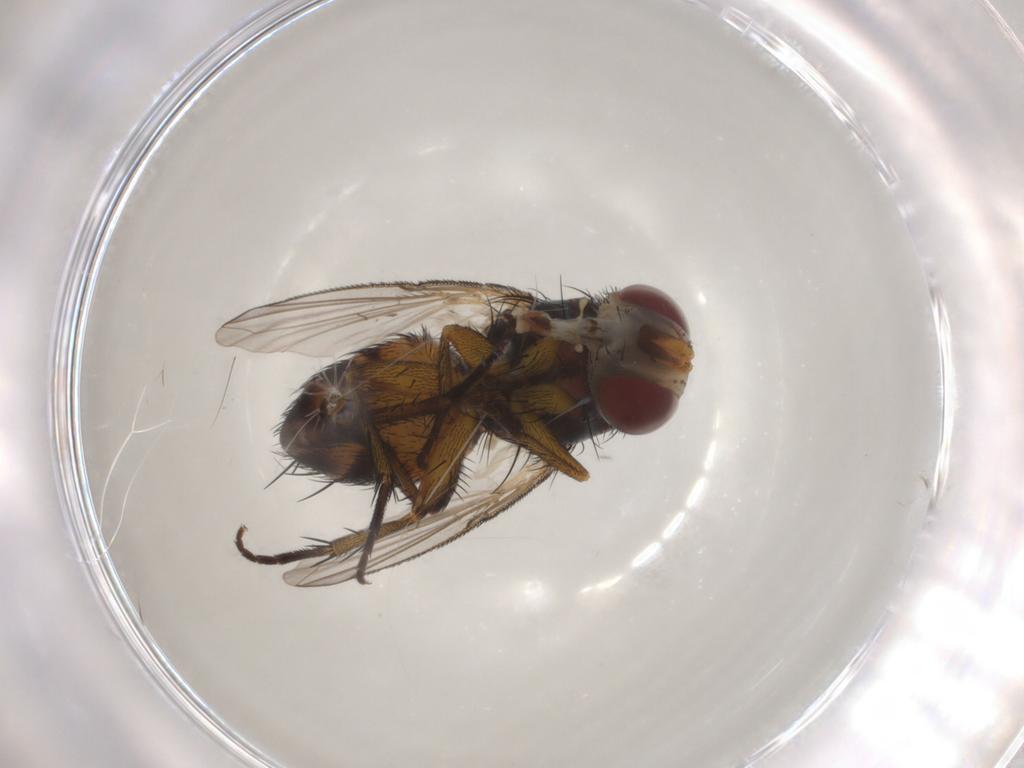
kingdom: Animalia
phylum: Arthropoda
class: Insecta
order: Diptera
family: Tachinidae
